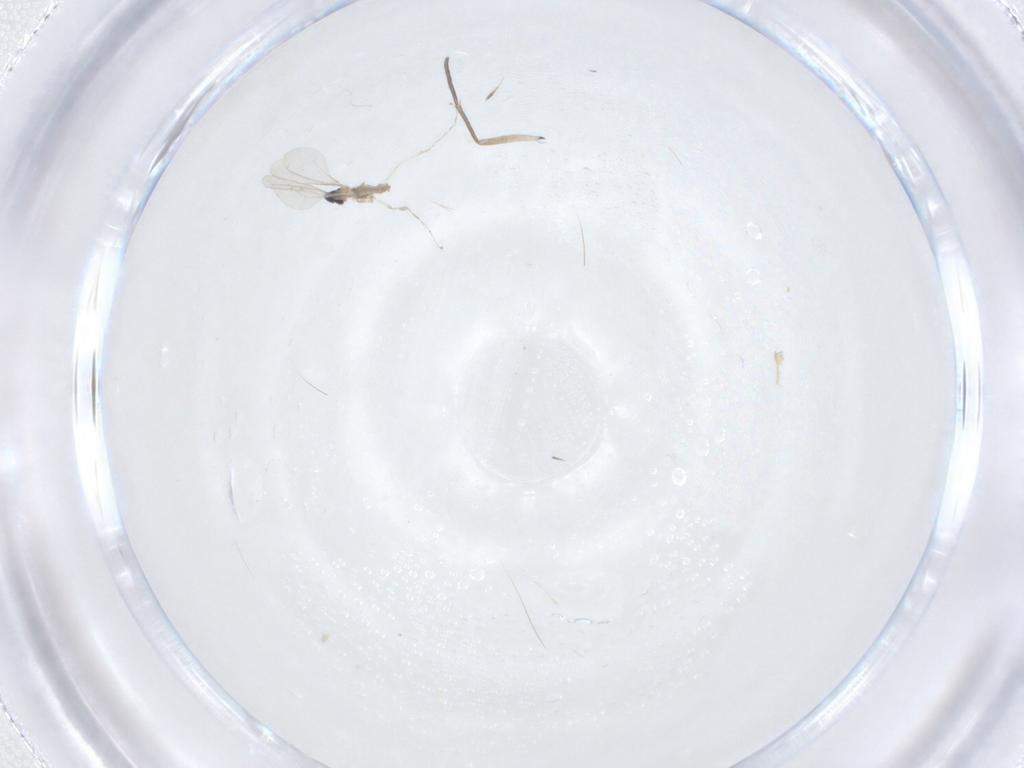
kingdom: Animalia
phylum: Arthropoda
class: Insecta
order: Diptera
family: Cecidomyiidae
